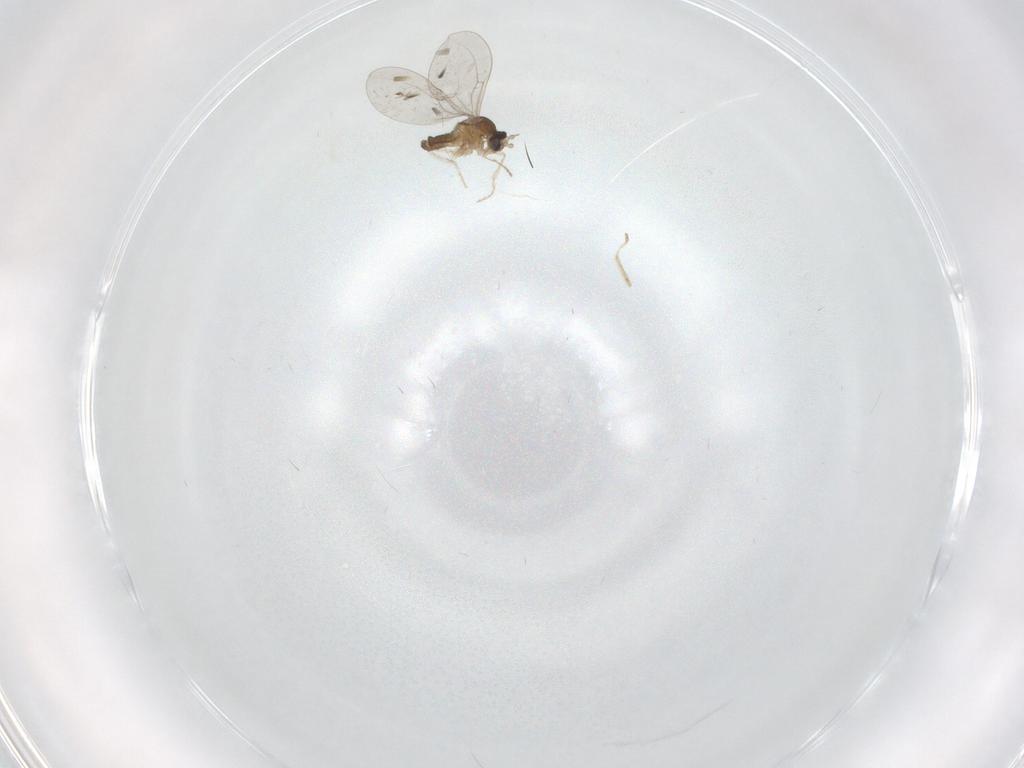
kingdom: Animalia
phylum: Arthropoda
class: Insecta
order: Diptera
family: Cecidomyiidae
